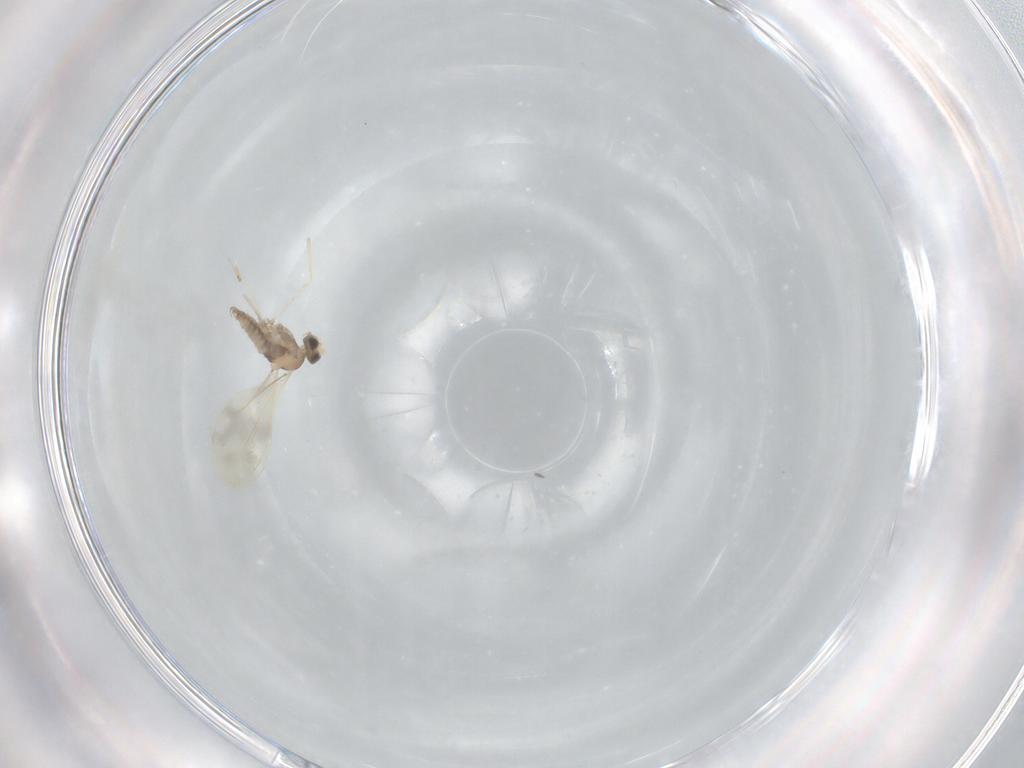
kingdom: Animalia
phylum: Arthropoda
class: Insecta
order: Diptera
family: Cecidomyiidae
